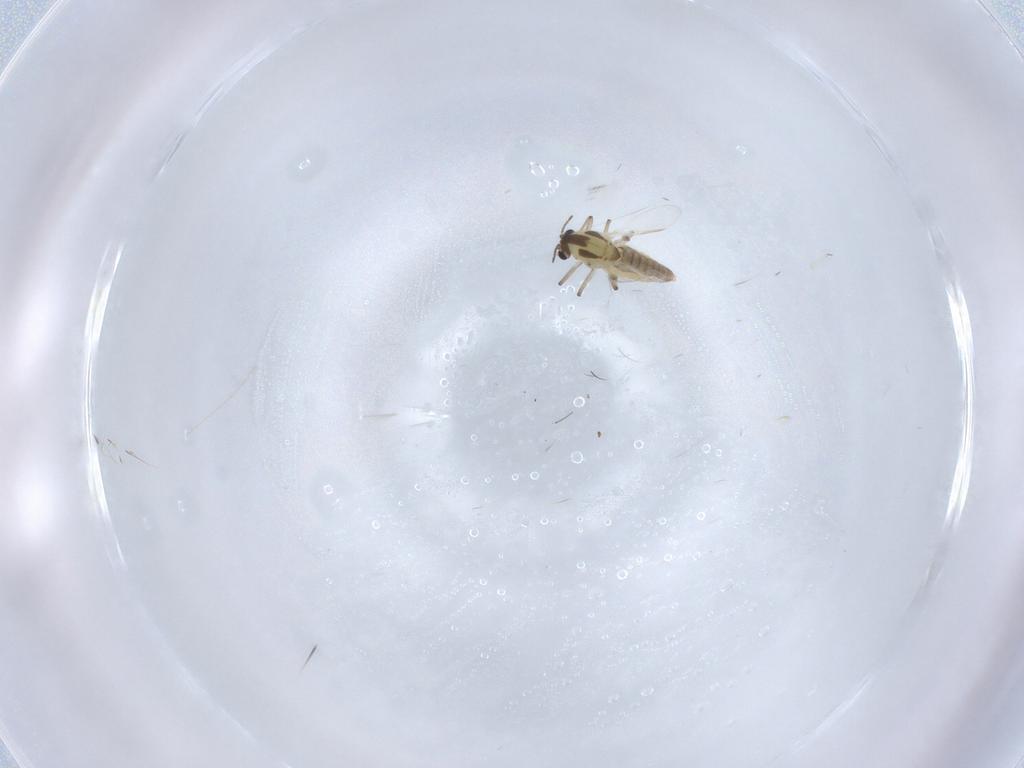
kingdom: Animalia
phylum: Arthropoda
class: Insecta
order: Diptera
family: Chironomidae
